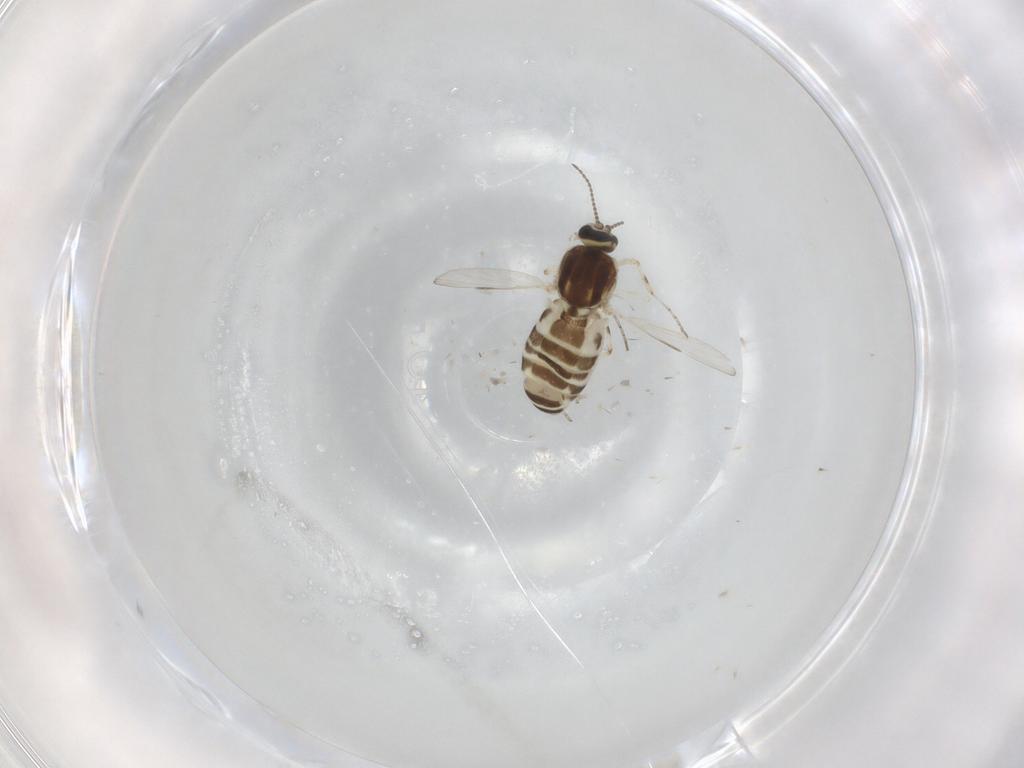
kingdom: Animalia
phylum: Arthropoda
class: Insecta
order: Diptera
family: Ceratopogonidae
